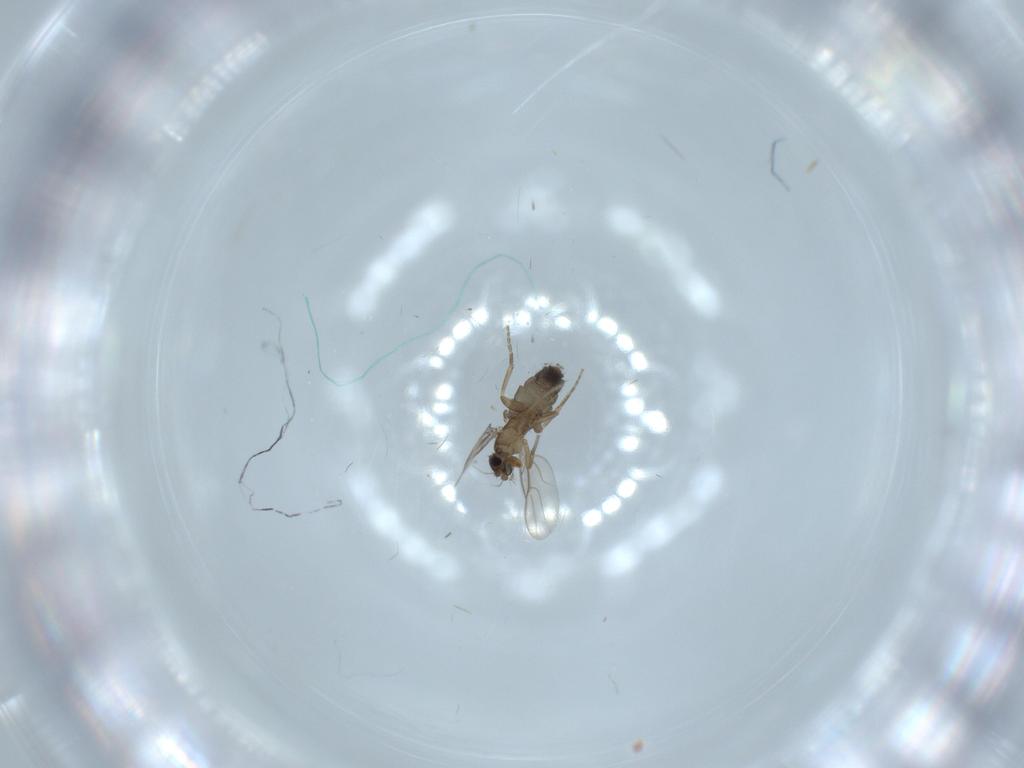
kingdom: Animalia
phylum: Arthropoda
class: Insecta
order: Diptera
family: Phoridae
